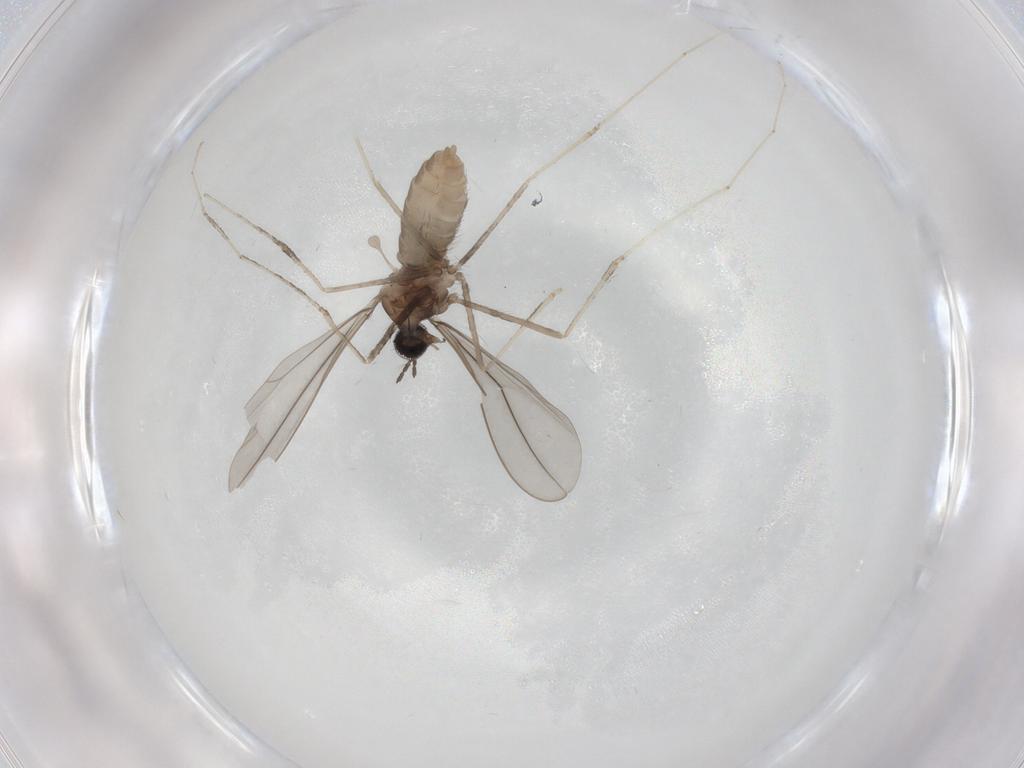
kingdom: Animalia
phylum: Arthropoda
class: Insecta
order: Diptera
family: Cecidomyiidae
